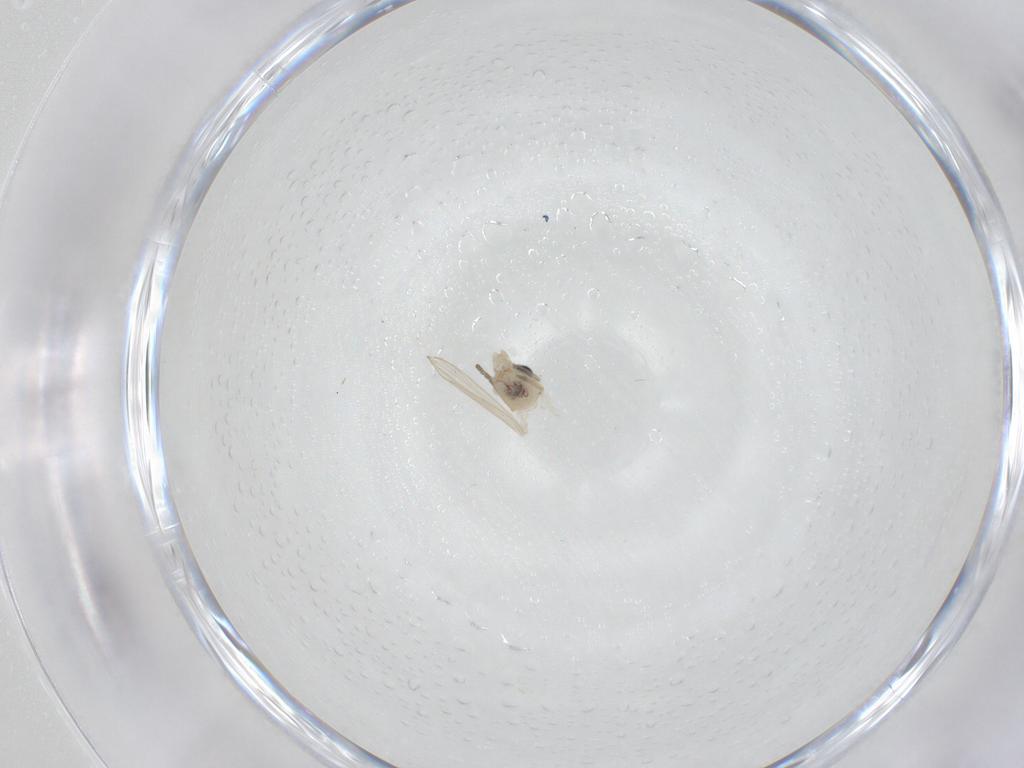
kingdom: Animalia
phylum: Arthropoda
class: Insecta
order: Diptera
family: Psychodidae
